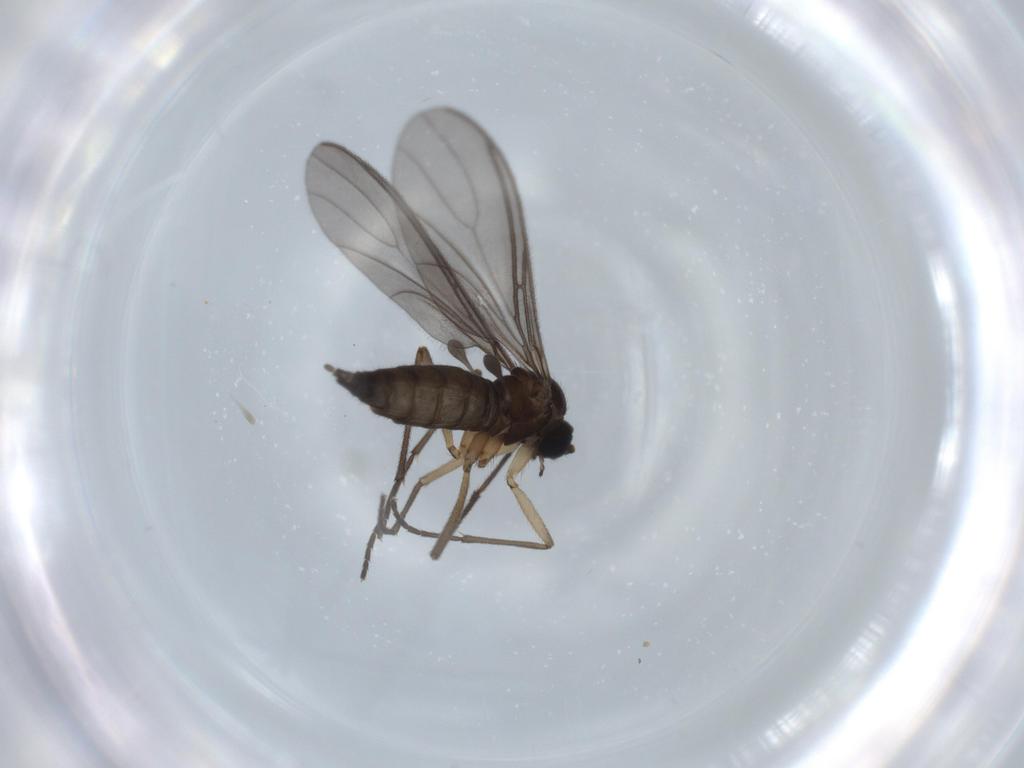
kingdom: Animalia
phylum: Arthropoda
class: Insecta
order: Diptera
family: Sciaridae
